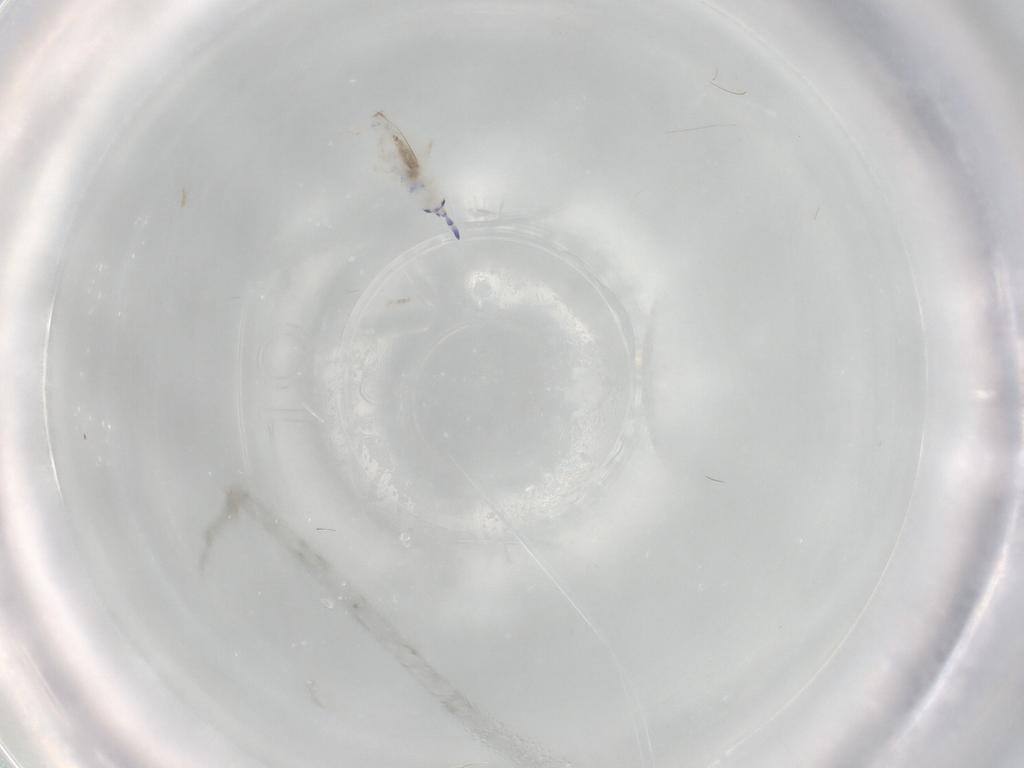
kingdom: Animalia
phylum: Arthropoda
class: Collembola
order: Entomobryomorpha
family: Entomobryidae
